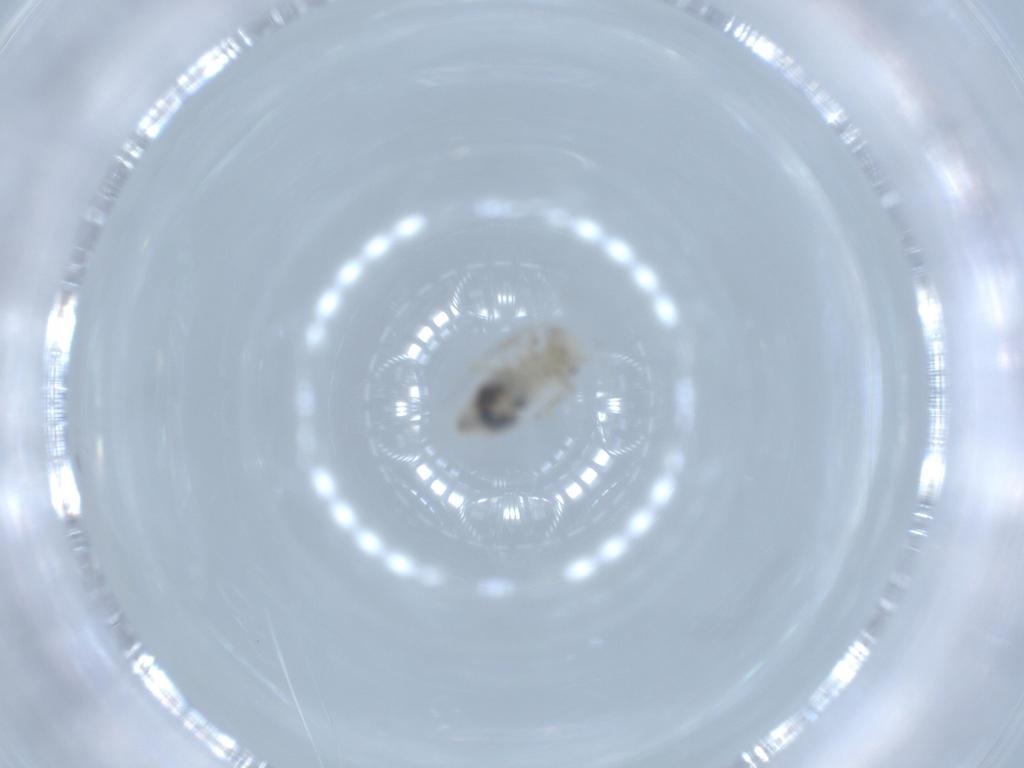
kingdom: Animalia
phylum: Arthropoda
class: Insecta
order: Psocodea
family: Caeciliusidae
